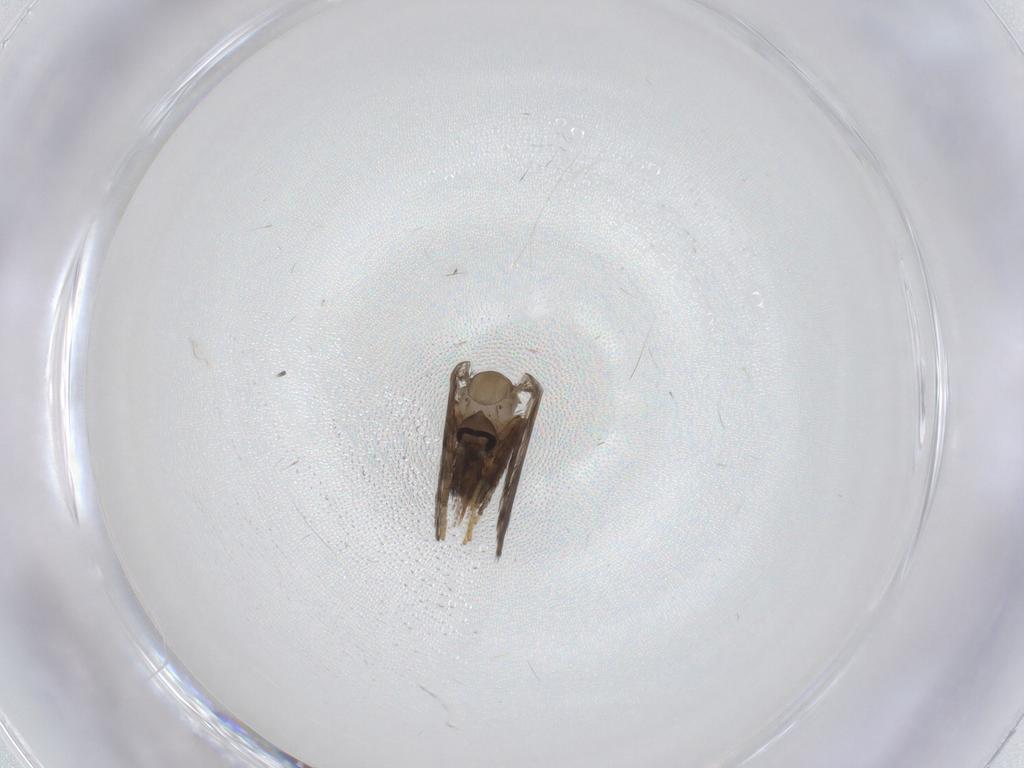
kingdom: Animalia
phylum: Arthropoda
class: Insecta
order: Diptera
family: Psychodidae
